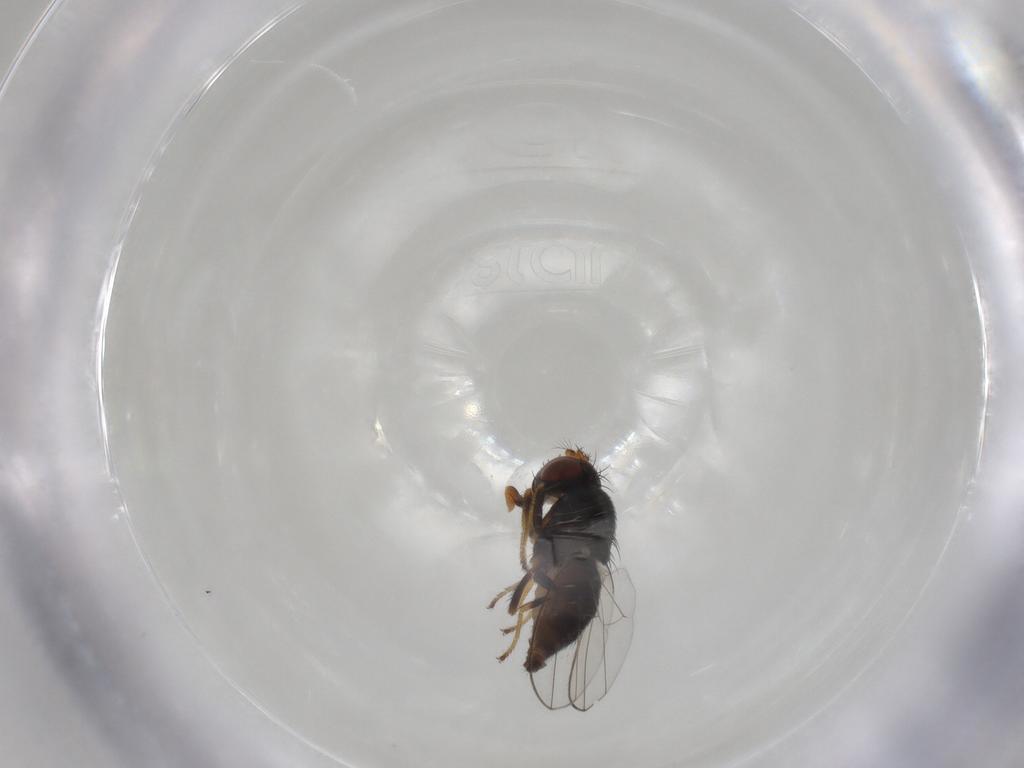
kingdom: Animalia
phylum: Arthropoda
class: Insecta
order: Diptera
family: Ephydridae
